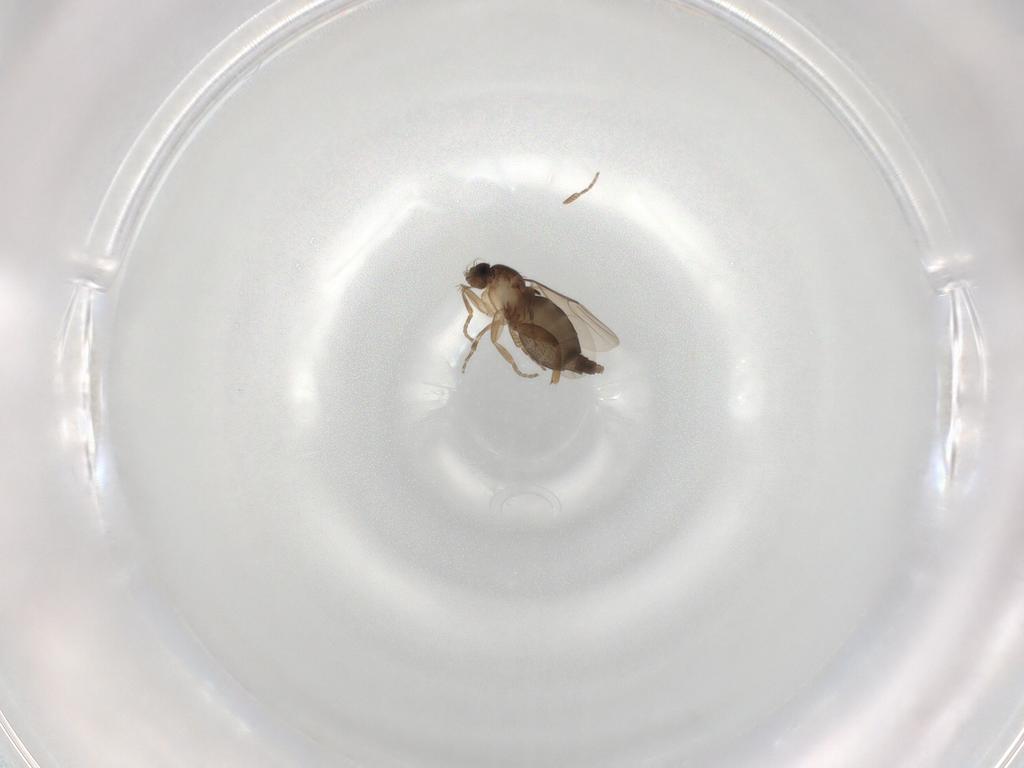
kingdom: Animalia
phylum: Arthropoda
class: Insecta
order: Diptera
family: Phoridae
